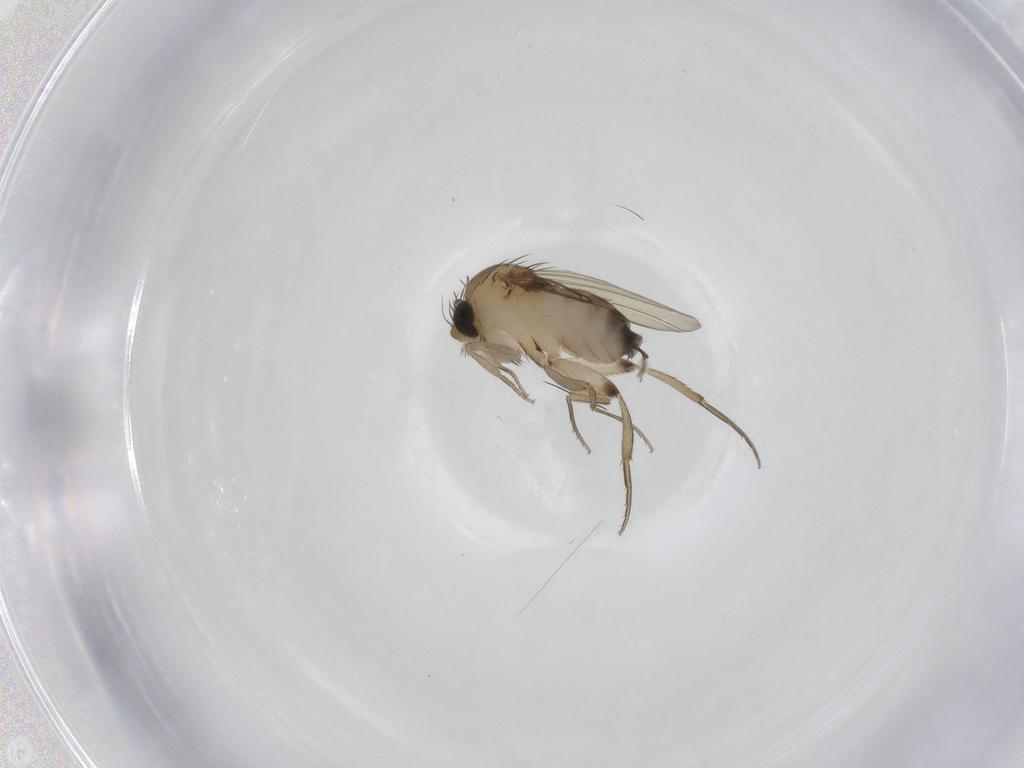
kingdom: Animalia
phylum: Arthropoda
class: Insecta
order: Diptera
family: Phoridae
